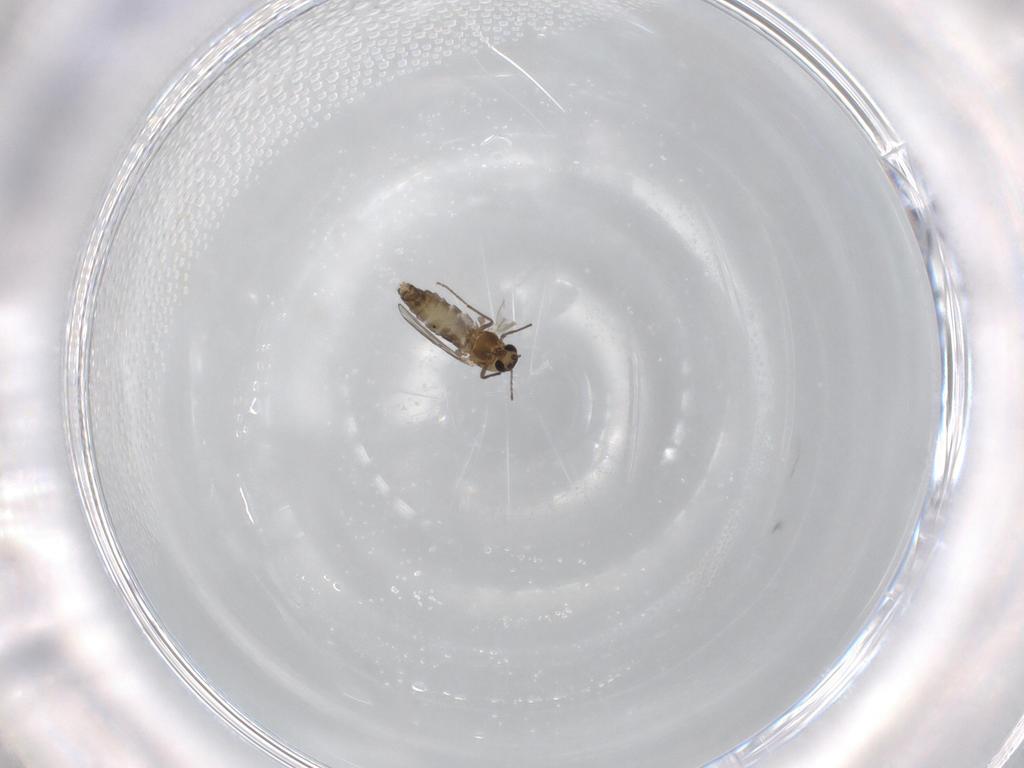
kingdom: Animalia
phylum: Arthropoda
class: Insecta
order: Diptera
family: Chironomidae
